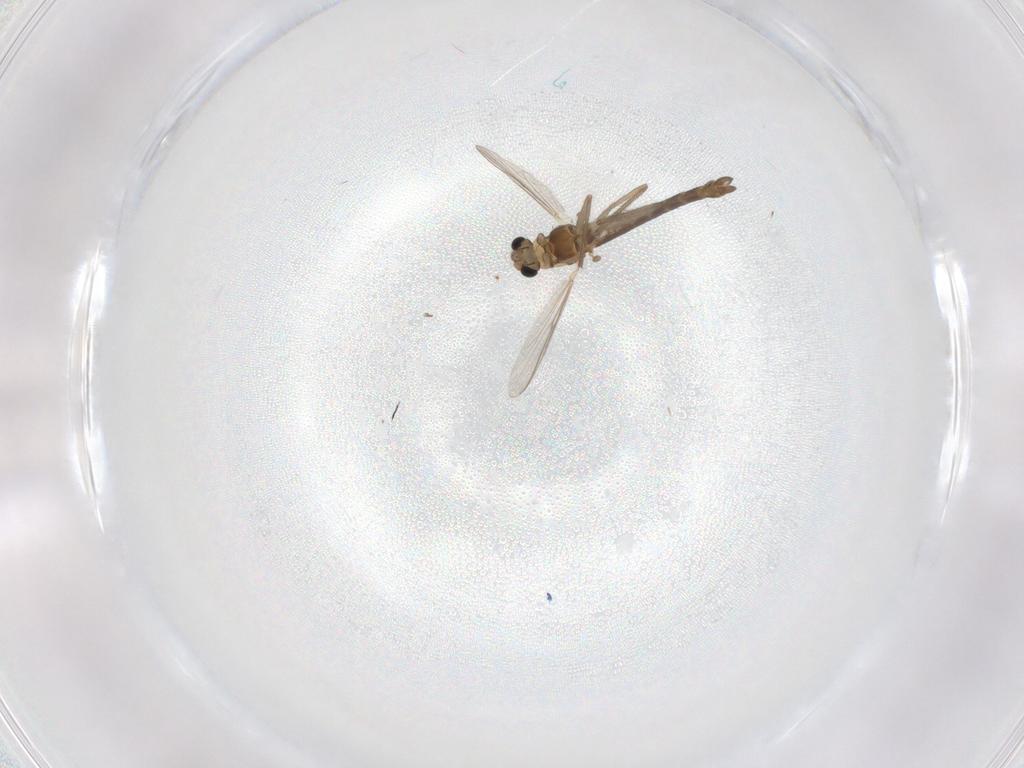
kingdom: Animalia
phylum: Arthropoda
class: Insecta
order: Diptera
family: Chironomidae
